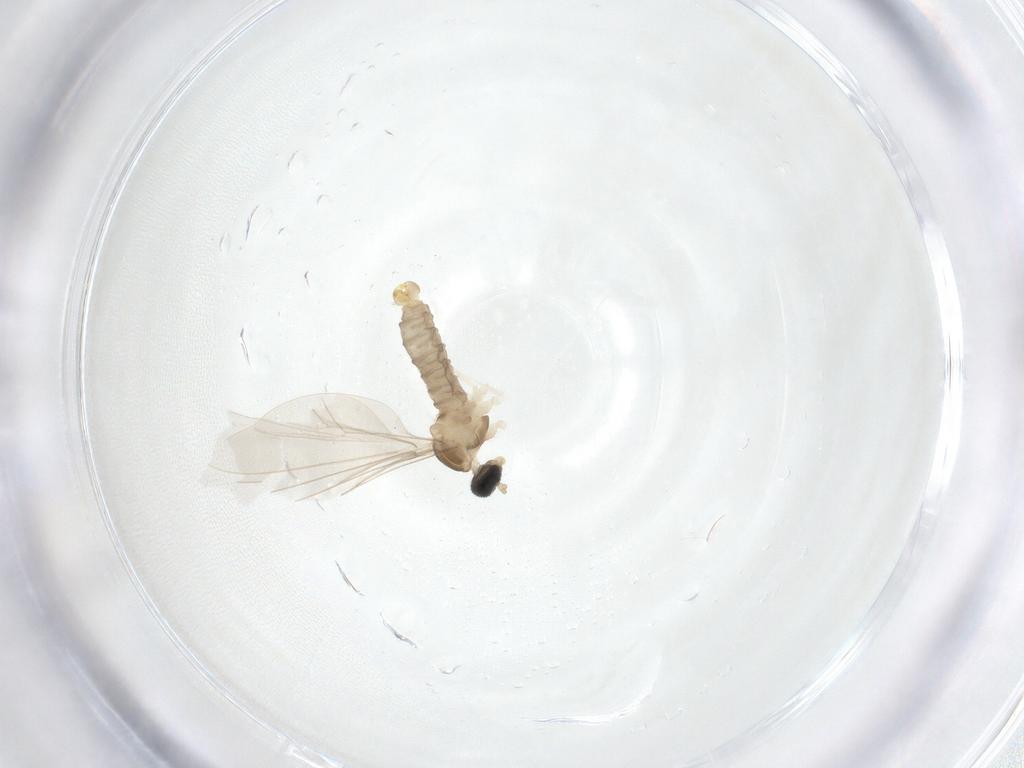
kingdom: Animalia
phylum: Arthropoda
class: Insecta
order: Diptera
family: Cecidomyiidae
